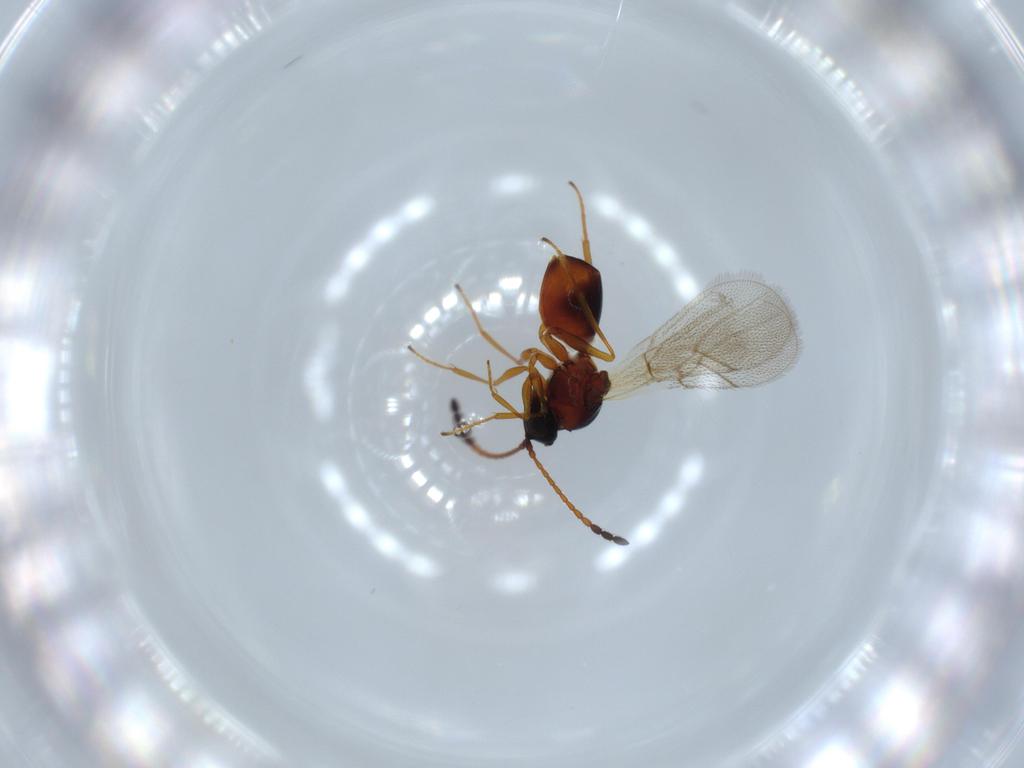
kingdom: Animalia
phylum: Arthropoda
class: Insecta
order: Hymenoptera
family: Figitidae
